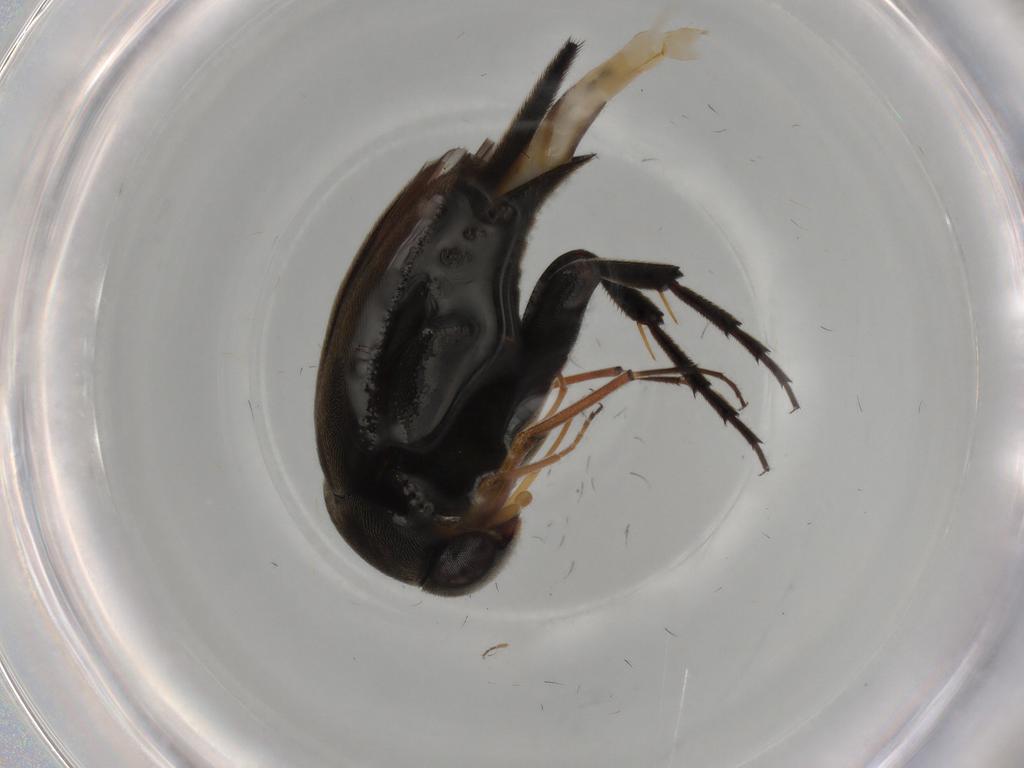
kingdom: Animalia
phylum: Arthropoda
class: Insecta
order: Coleoptera
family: Mordellidae
